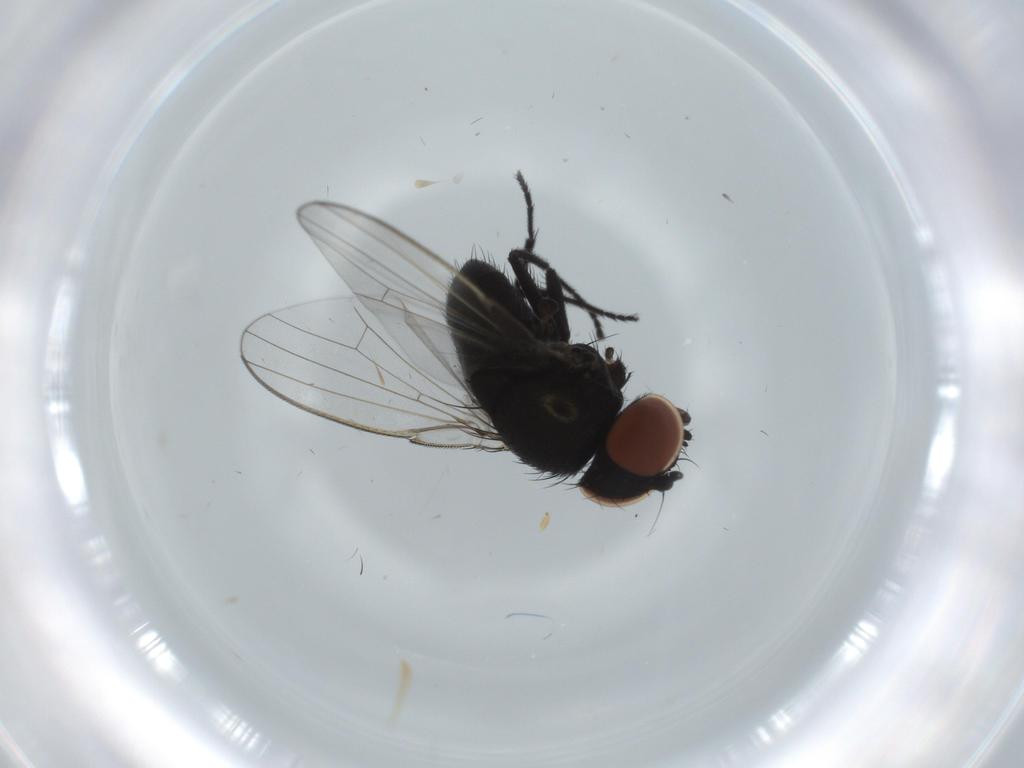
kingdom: Animalia
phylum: Arthropoda
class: Insecta
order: Diptera
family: Milichiidae
